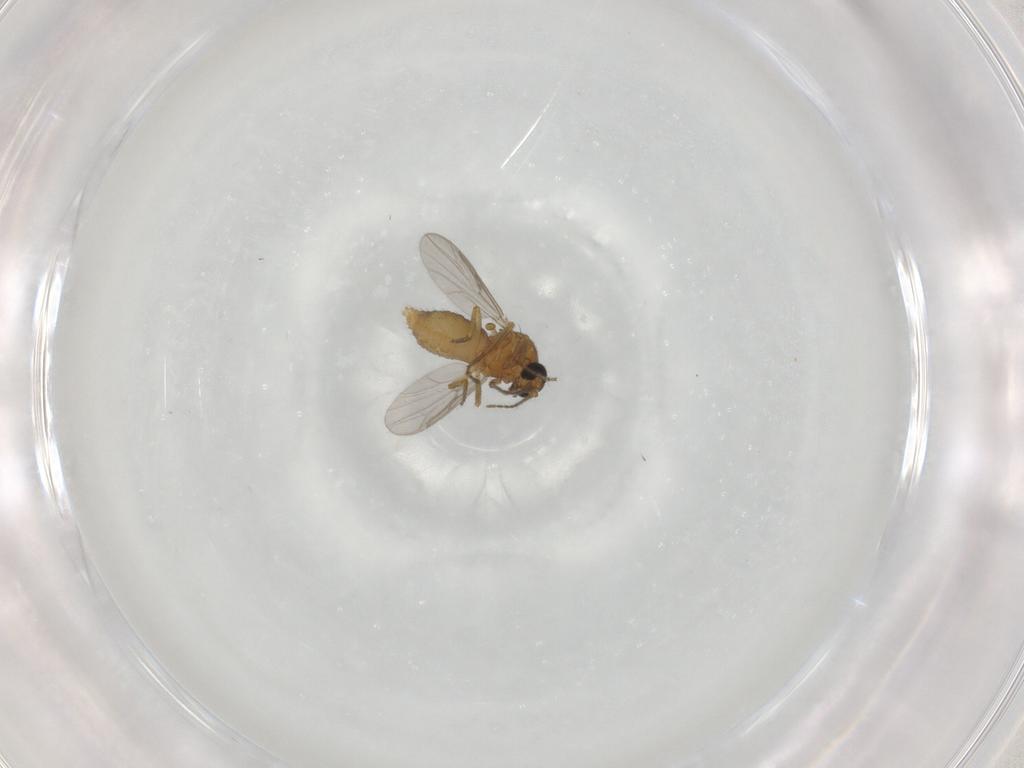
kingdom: Animalia
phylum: Arthropoda
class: Insecta
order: Diptera
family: Ceratopogonidae
